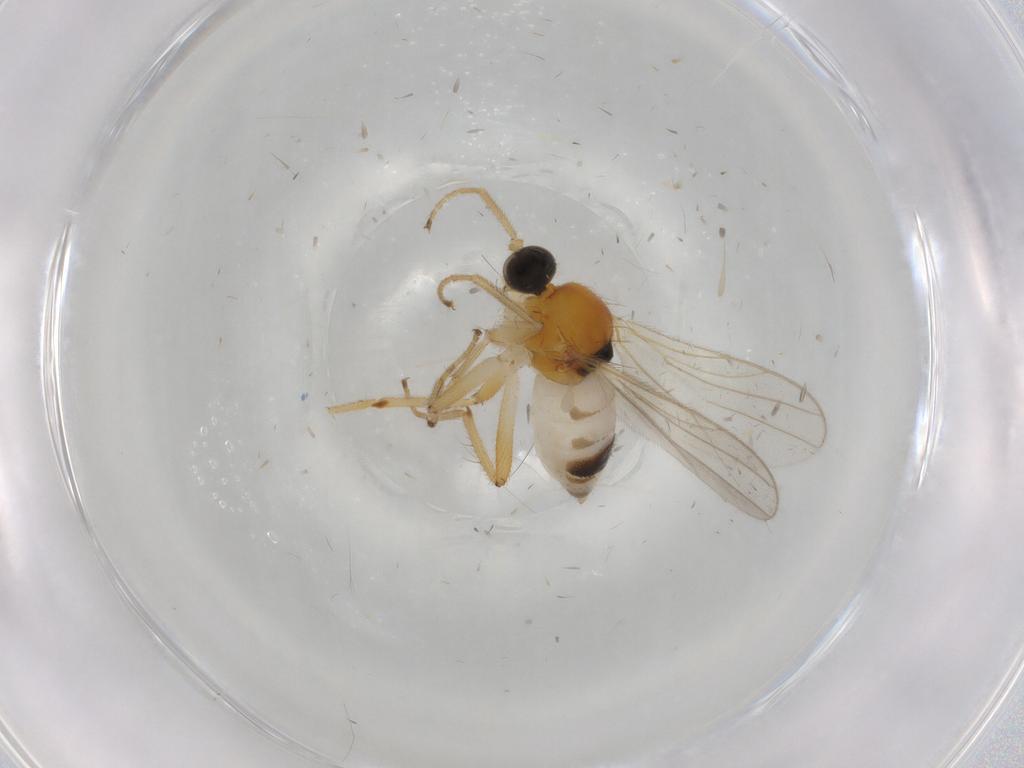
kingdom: Animalia
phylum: Arthropoda
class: Insecta
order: Diptera
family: Hybotidae
